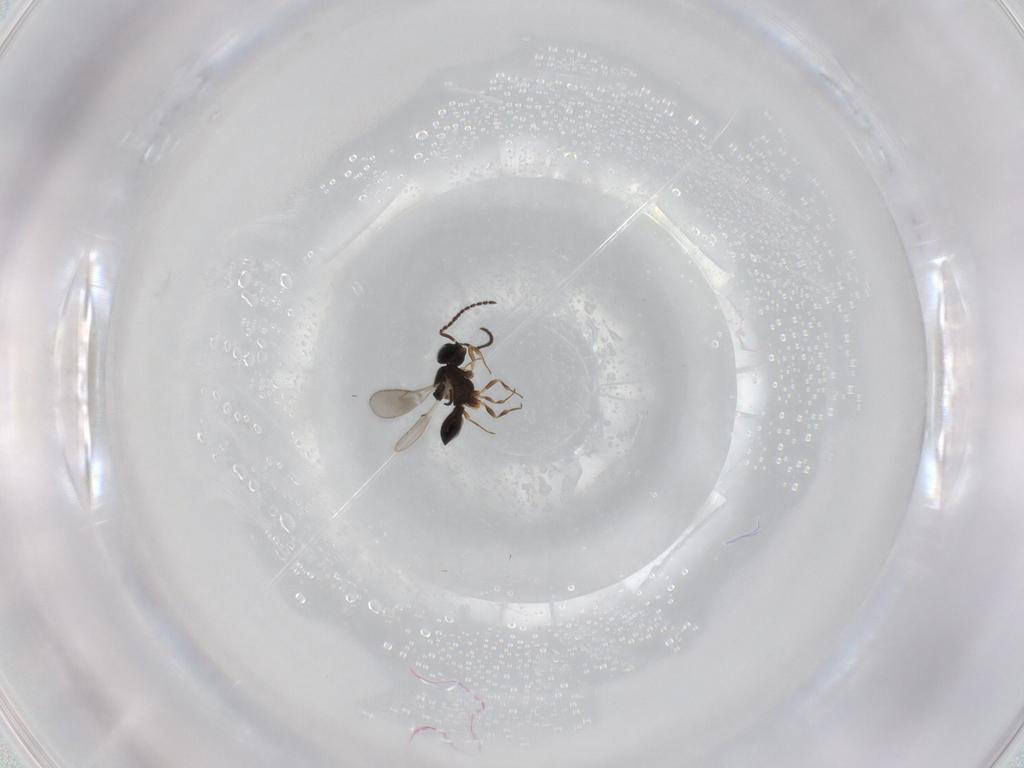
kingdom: Animalia
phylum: Arthropoda
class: Insecta
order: Hymenoptera
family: Scelionidae
